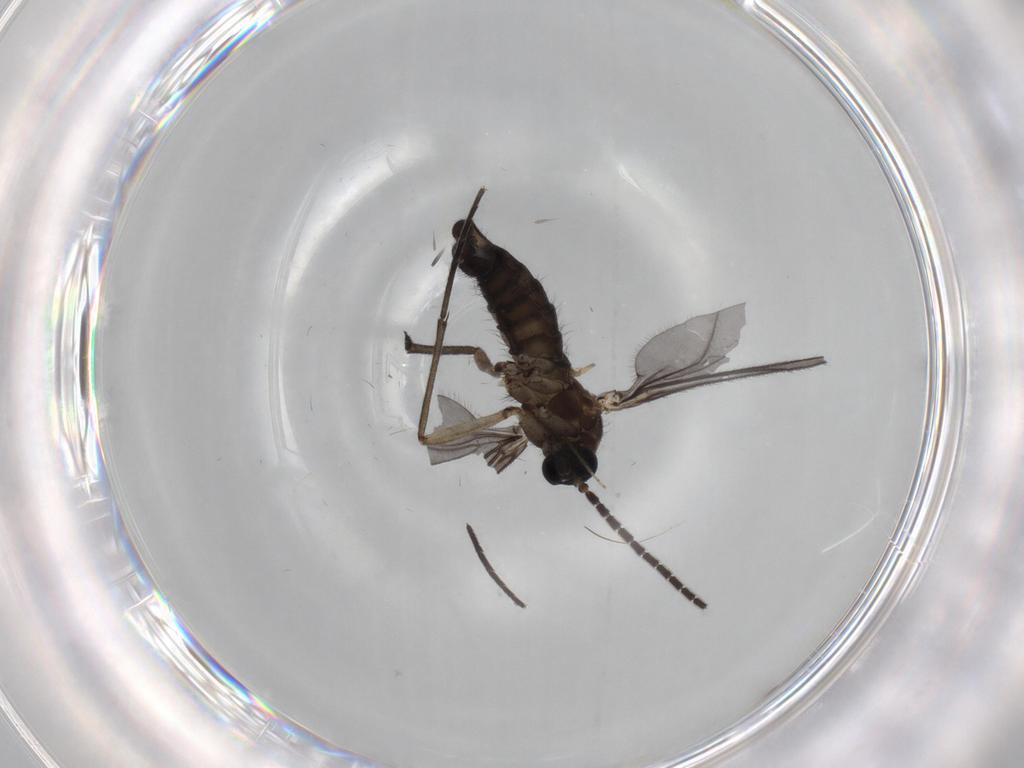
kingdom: Animalia
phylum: Arthropoda
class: Insecta
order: Diptera
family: Sciaridae
